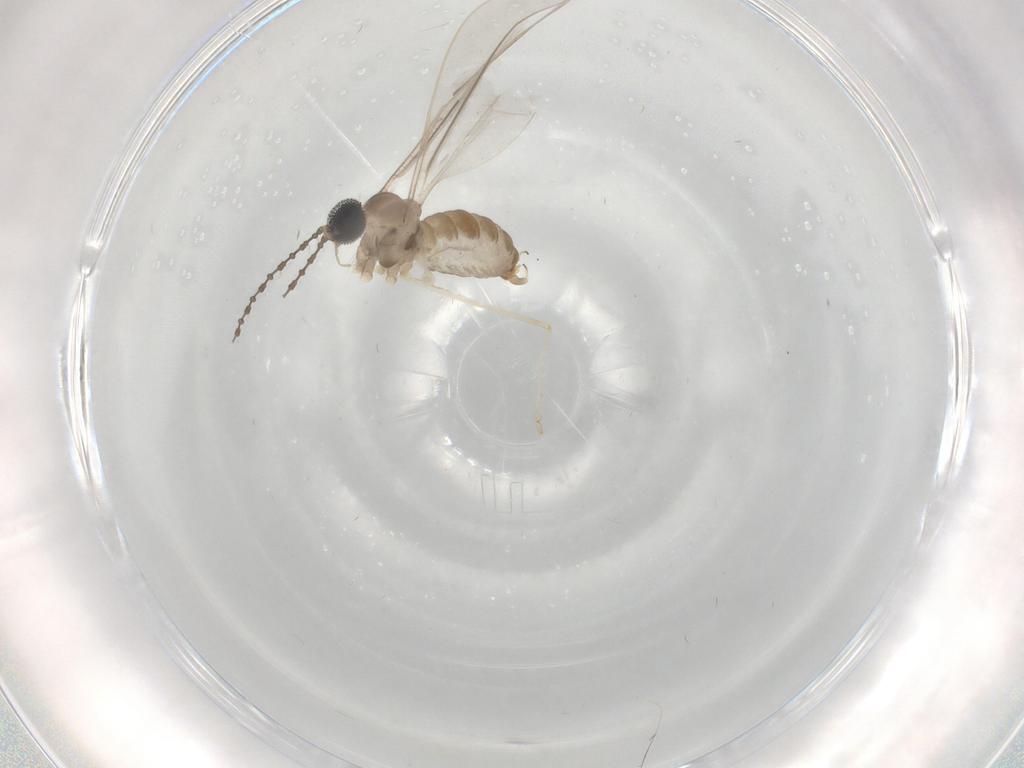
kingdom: Animalia
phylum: Arthropoda
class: Insecta
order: Diptera
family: Cecidomyiidae
